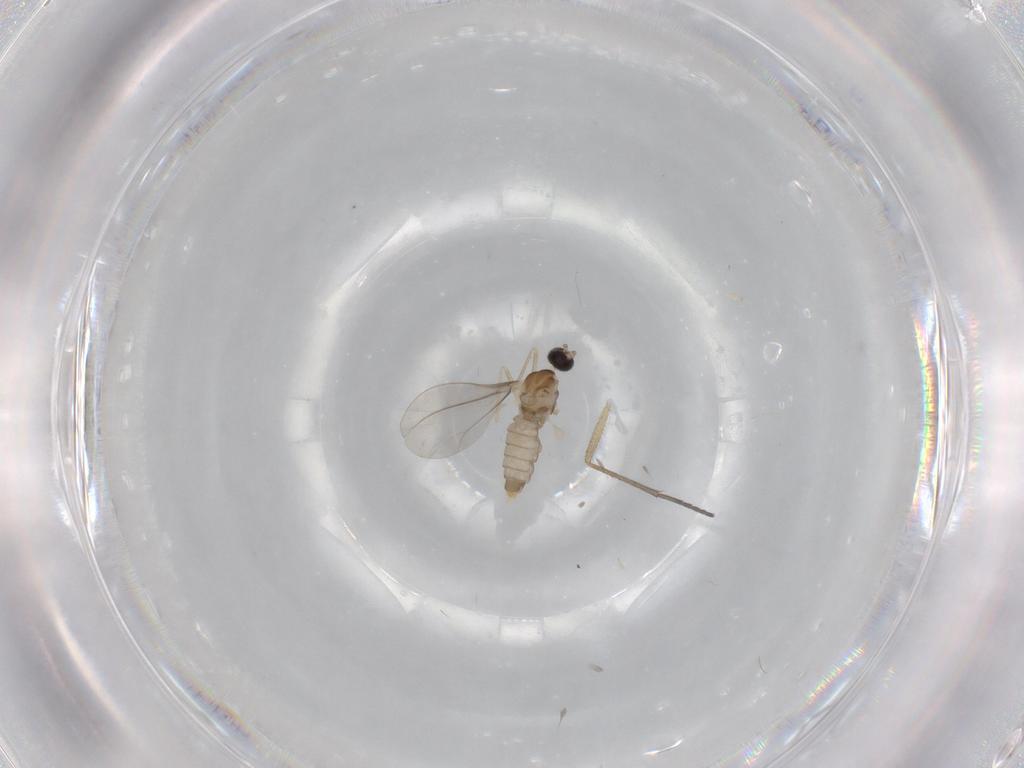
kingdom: Animalia
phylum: Arthropoda
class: Insecta
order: Diptera
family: Cecidomyiidae
